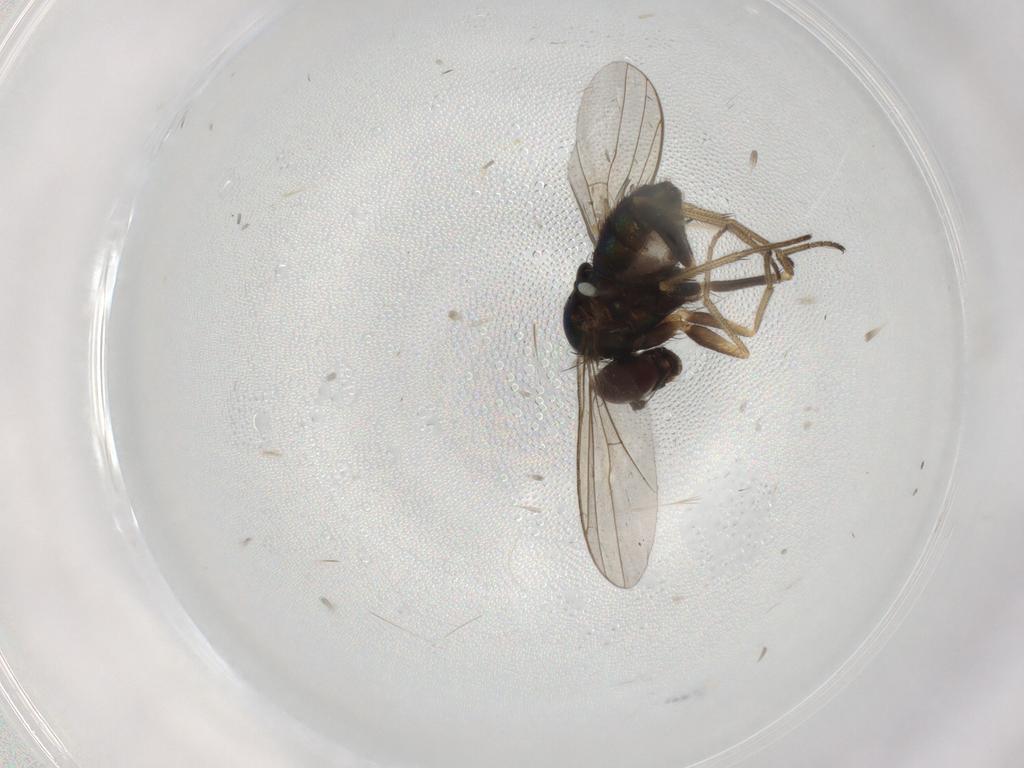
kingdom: Animalia
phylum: Arthropoda
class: Insecta
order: Diptera
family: Dolichopodidae
